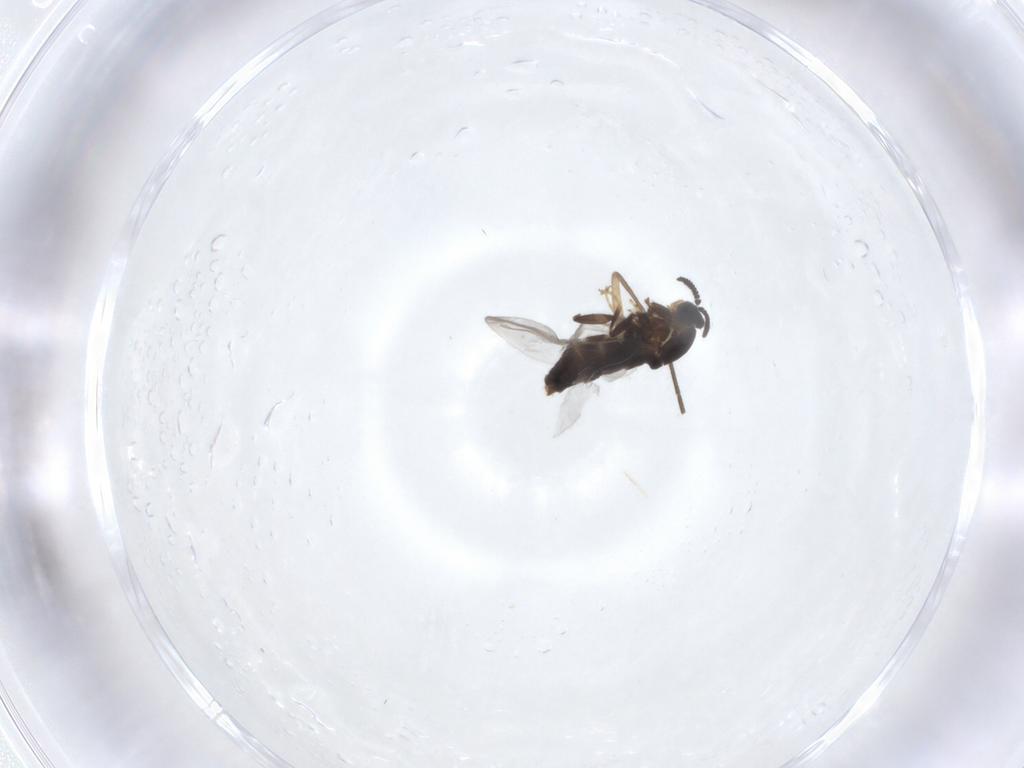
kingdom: Animalia
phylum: Arthropoda
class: Insecta
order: Diptera
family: Scatopsidae
